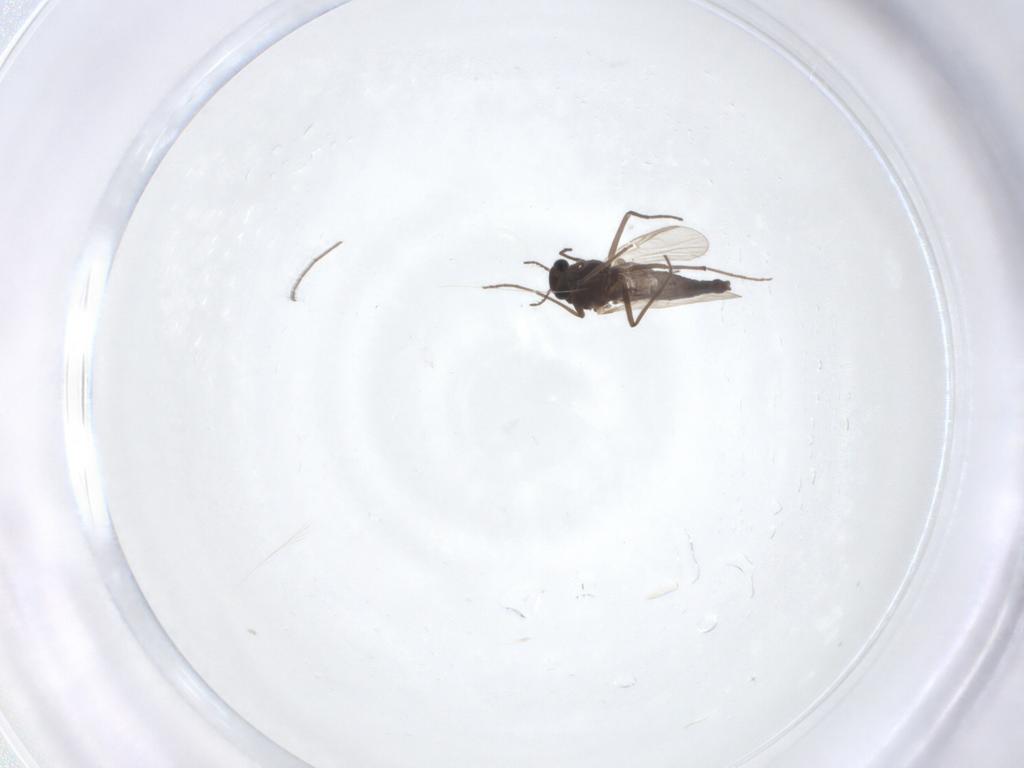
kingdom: Animalia
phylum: Arthropoda
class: Insecta
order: Diptera
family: Chironomidae
